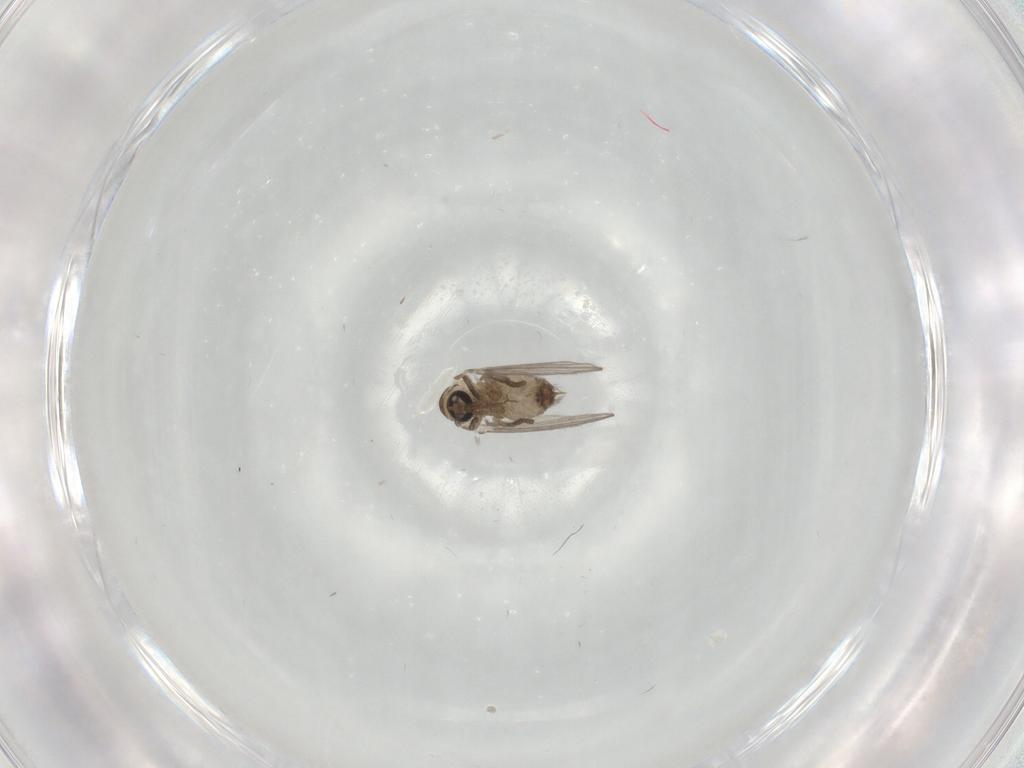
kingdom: Animalia
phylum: Arthropoda
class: Insecta
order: Diptera
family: Psychodidae
